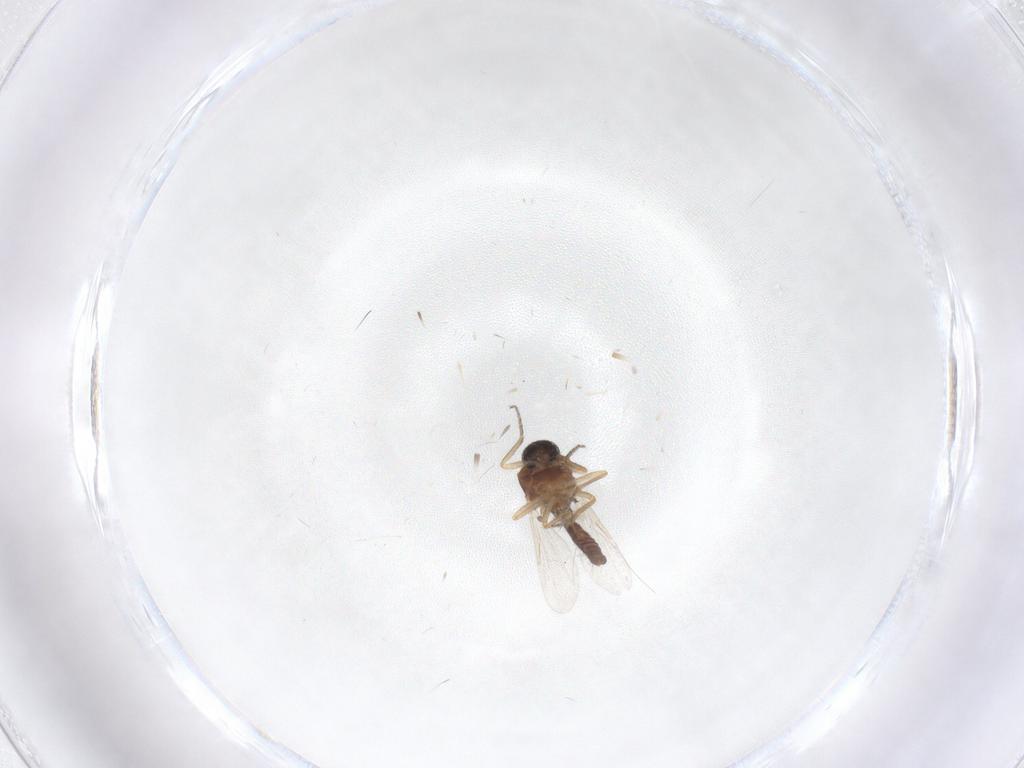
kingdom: Animalia
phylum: Arthropoda
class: Insecta
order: Diptera
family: Ceratopogonidae
